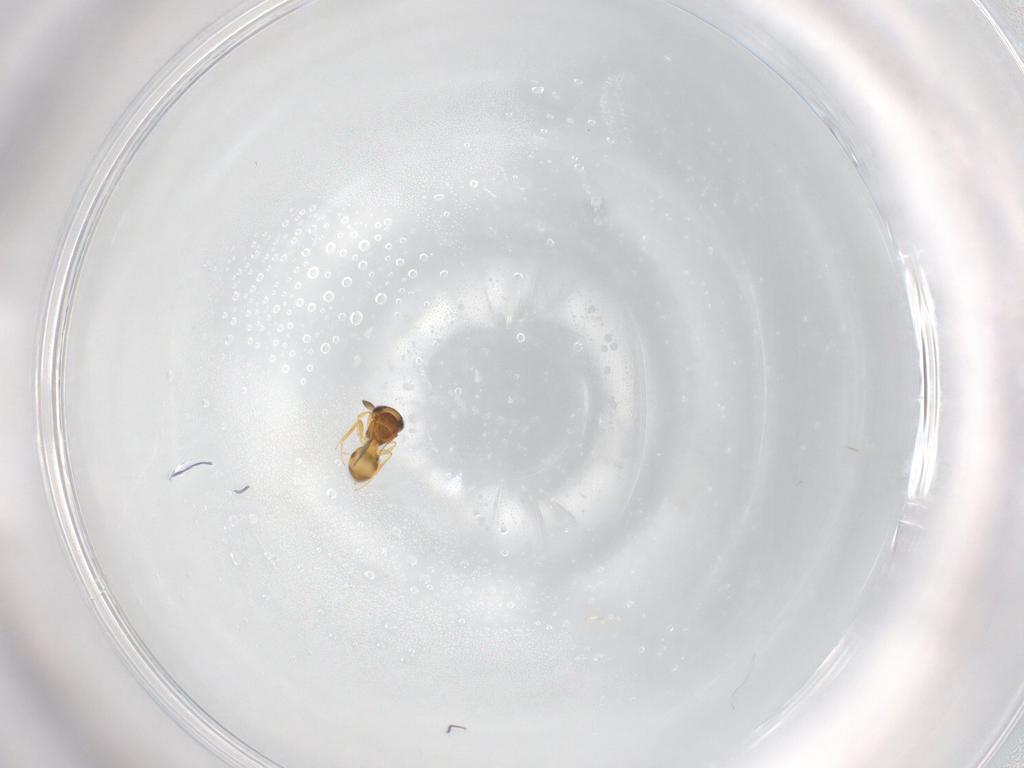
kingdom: Animalia
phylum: Arthropoda
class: Insecta
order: Hymenoptera
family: Scelionidae
